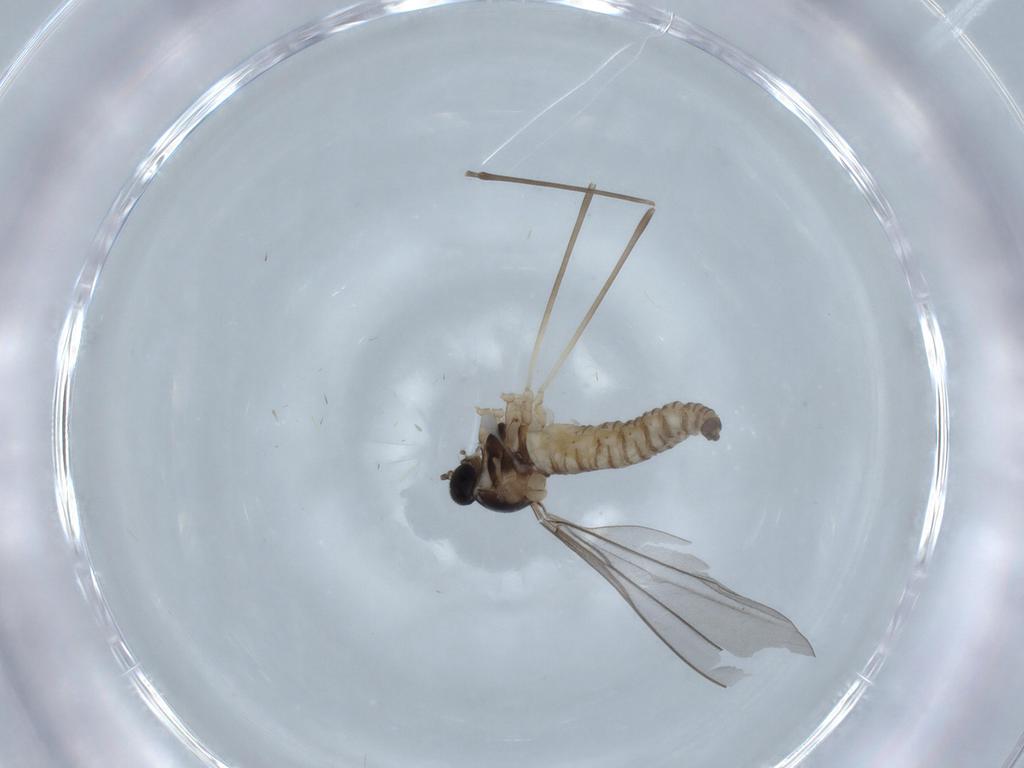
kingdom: Animalia
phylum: Arthropoda
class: Insecta
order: Diptera
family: Cecidomyiidae
